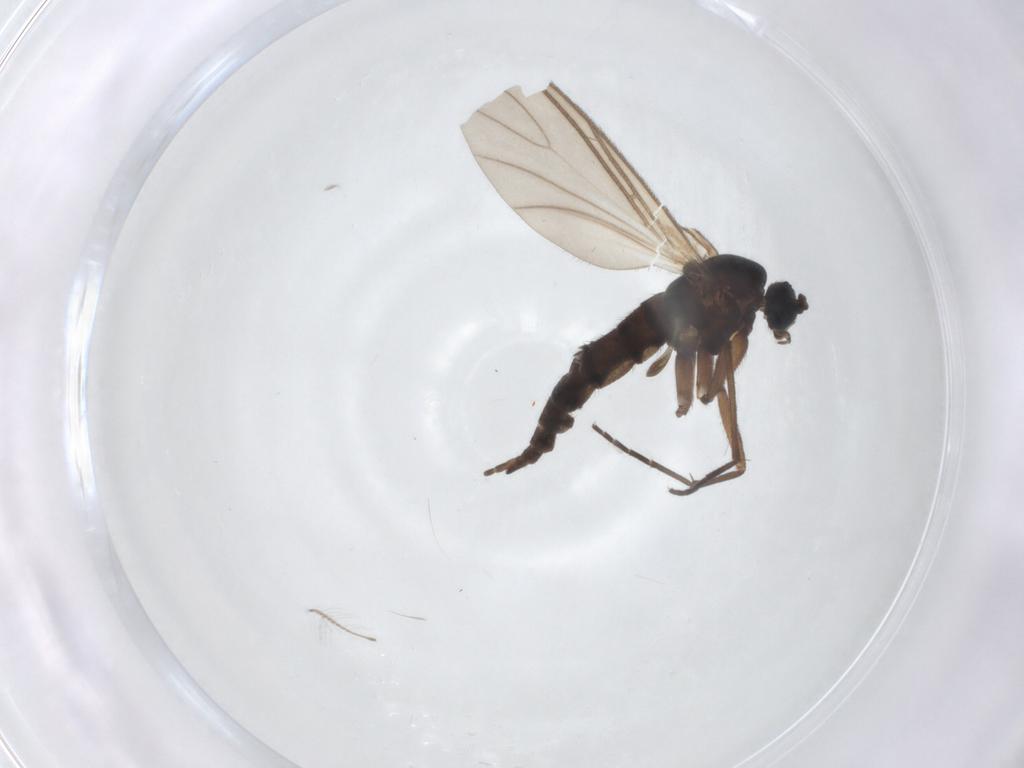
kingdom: Animalia
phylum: Arthropoda
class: Insecta
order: Diptera
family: Sciaridae
